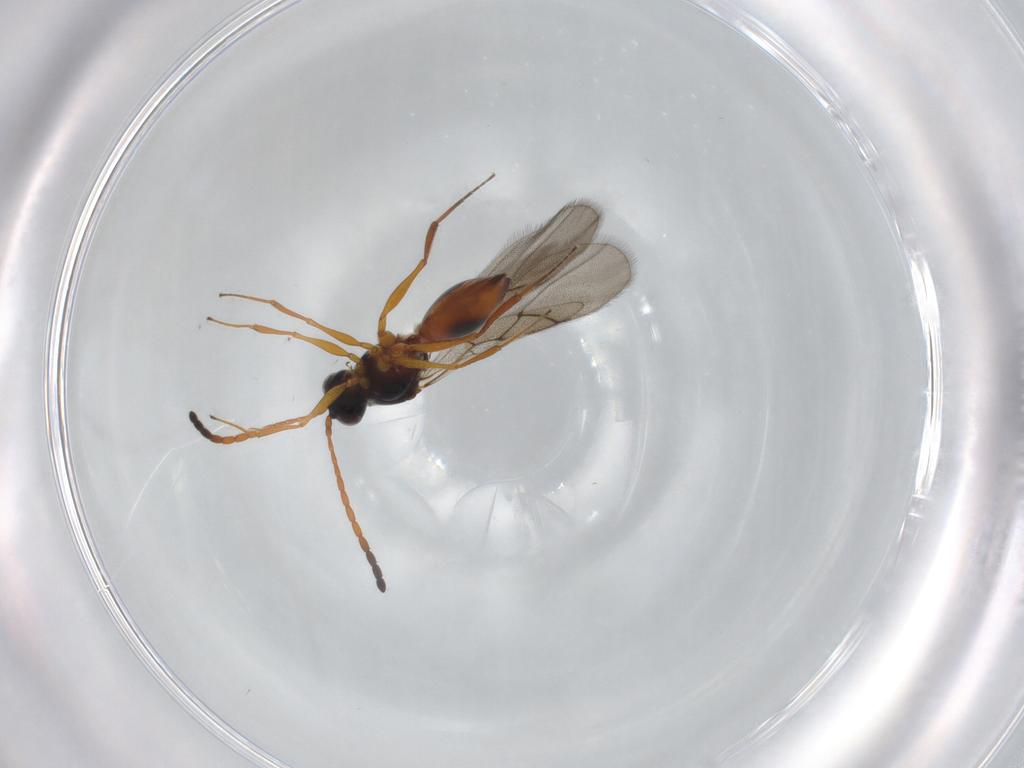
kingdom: Animalia
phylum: Arthropoda
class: Insecta
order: Hymenoptera
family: Figitidae
